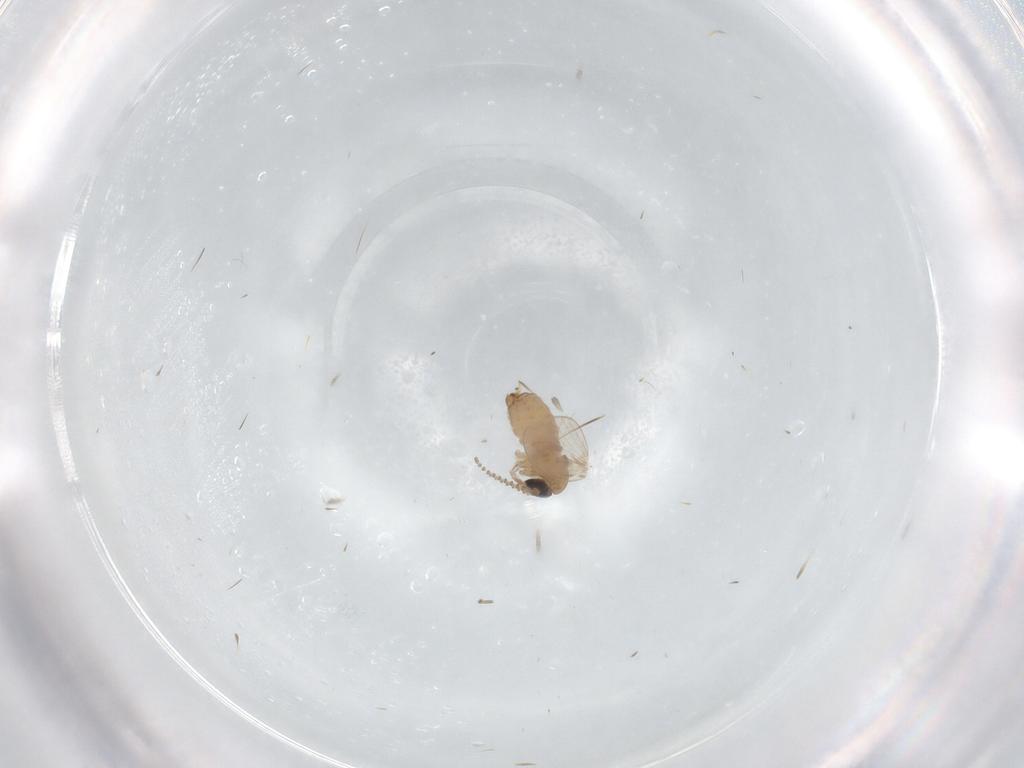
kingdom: Animalia
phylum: Arthropoda
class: Insecta
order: Diptera
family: Psychodidae
